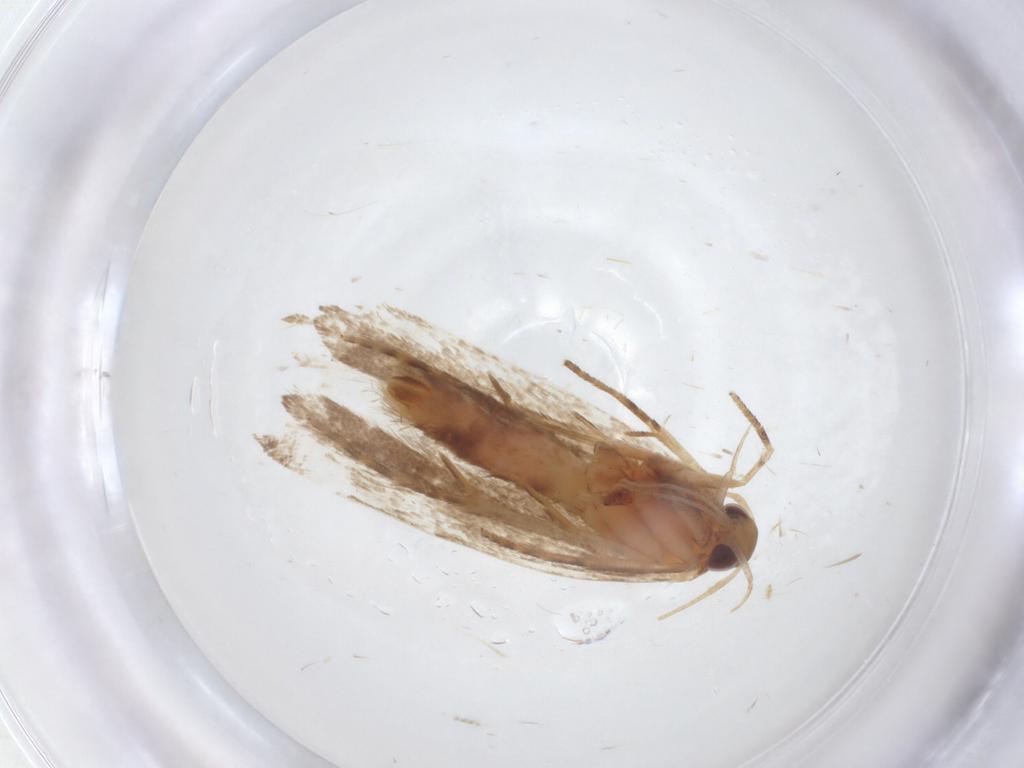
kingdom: Animalia
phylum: Arthropoda
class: Insecta
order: Lepidoptera
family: Gelechiidae
